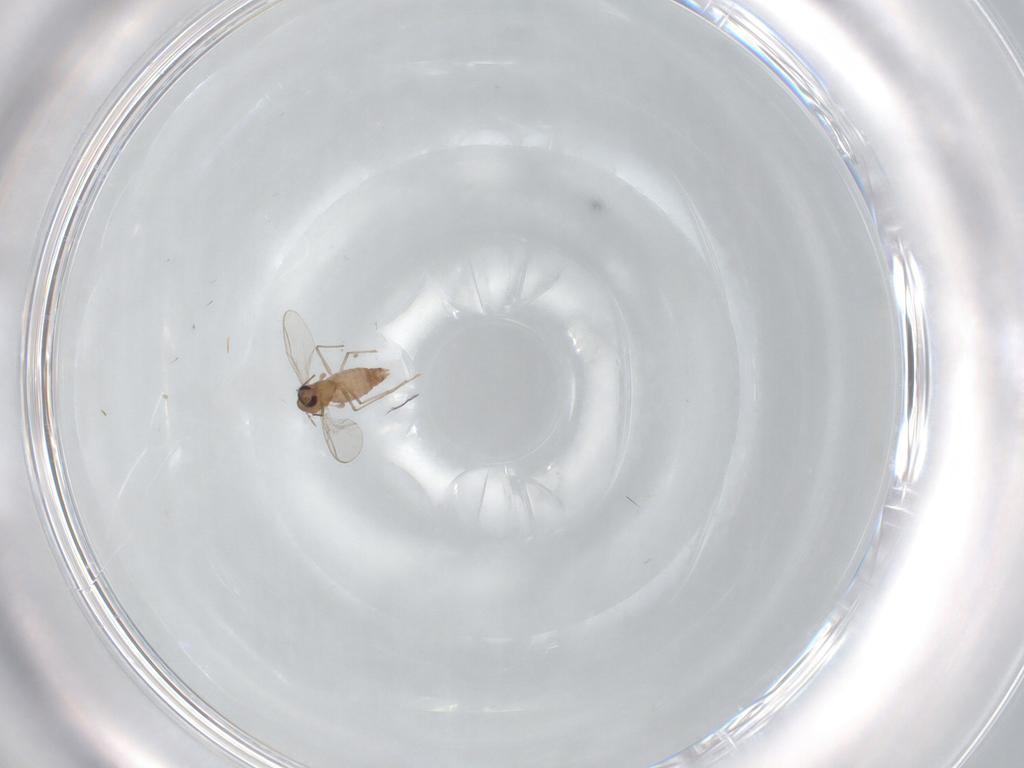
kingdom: Animalia
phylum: Arthropoda
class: Insecta
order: Diptera
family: Chironomidae
